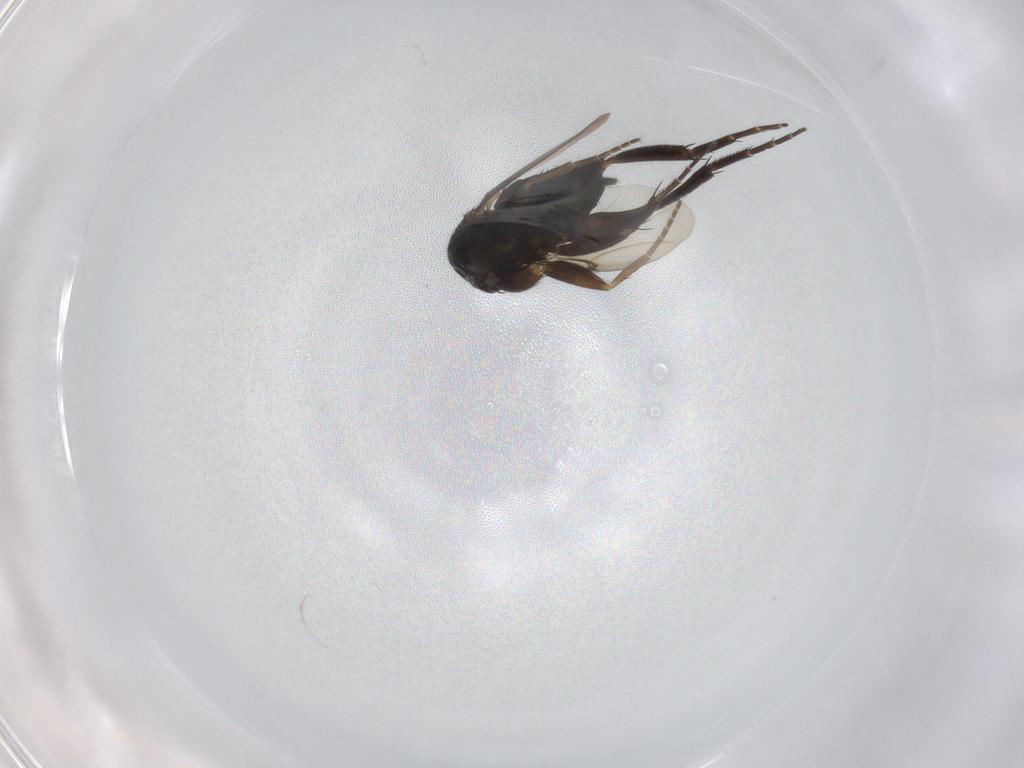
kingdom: Animalia
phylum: Arthropoda
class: Insecta
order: Diptera
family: Phoridae
